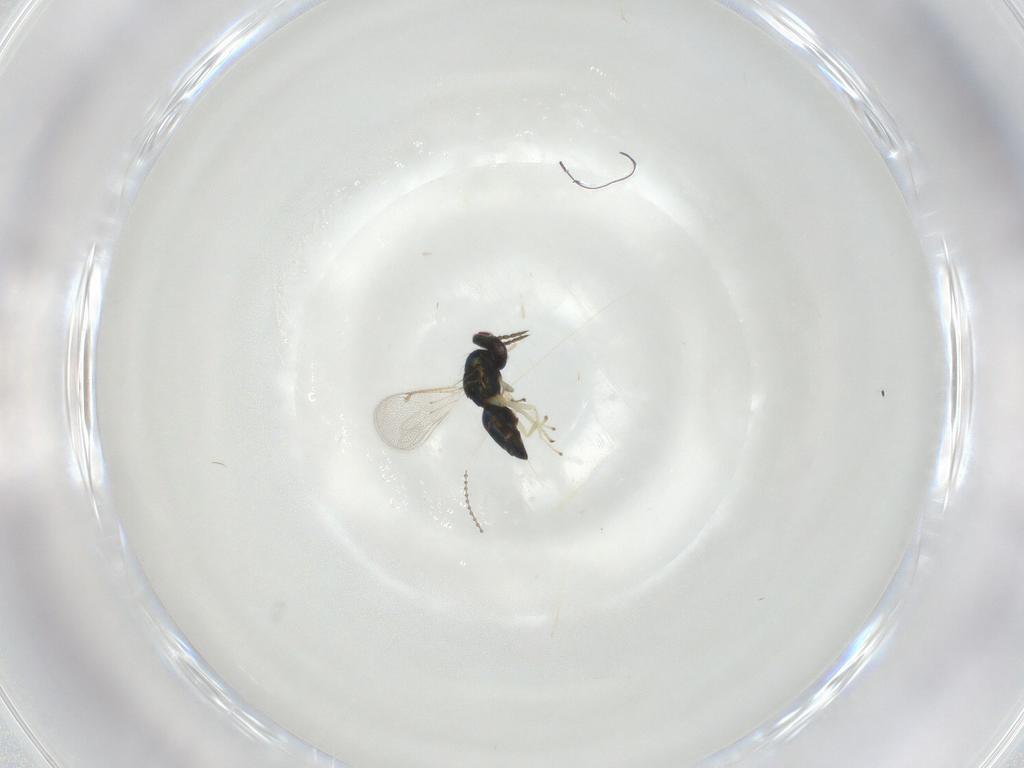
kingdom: Animalia
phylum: Arthropoda
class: Insecta
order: Hymenoptera
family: Eulophidae
